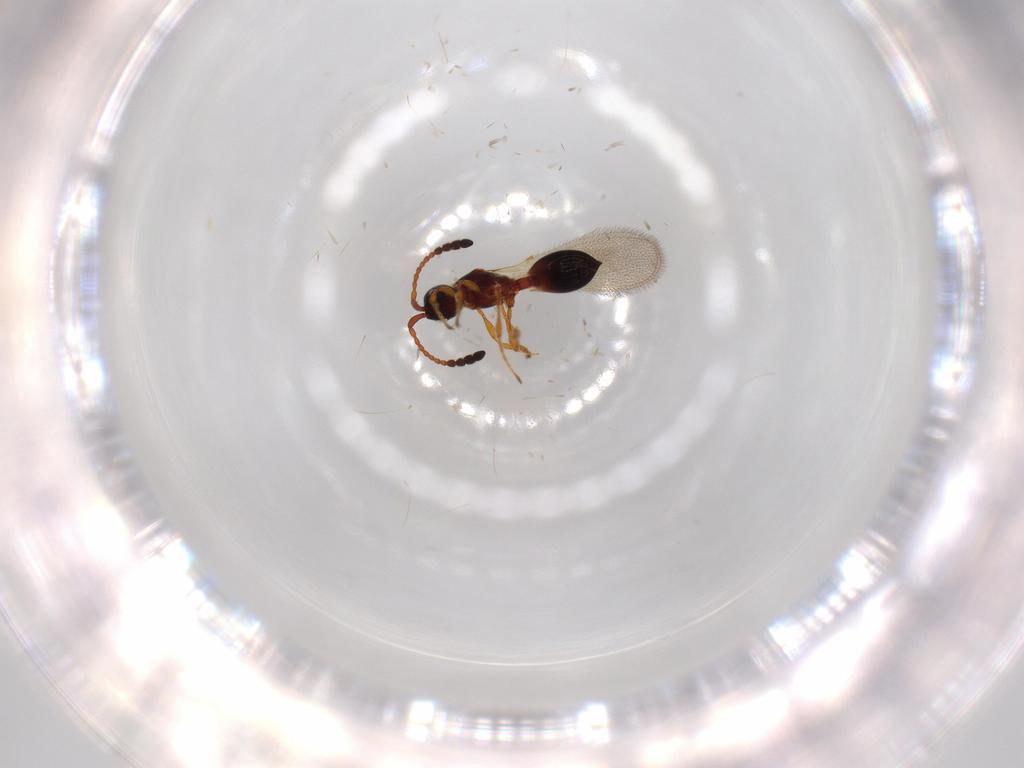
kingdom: Animalia
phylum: Arthropoda
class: Insecta
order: Hymenoptera
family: Diapriidae
